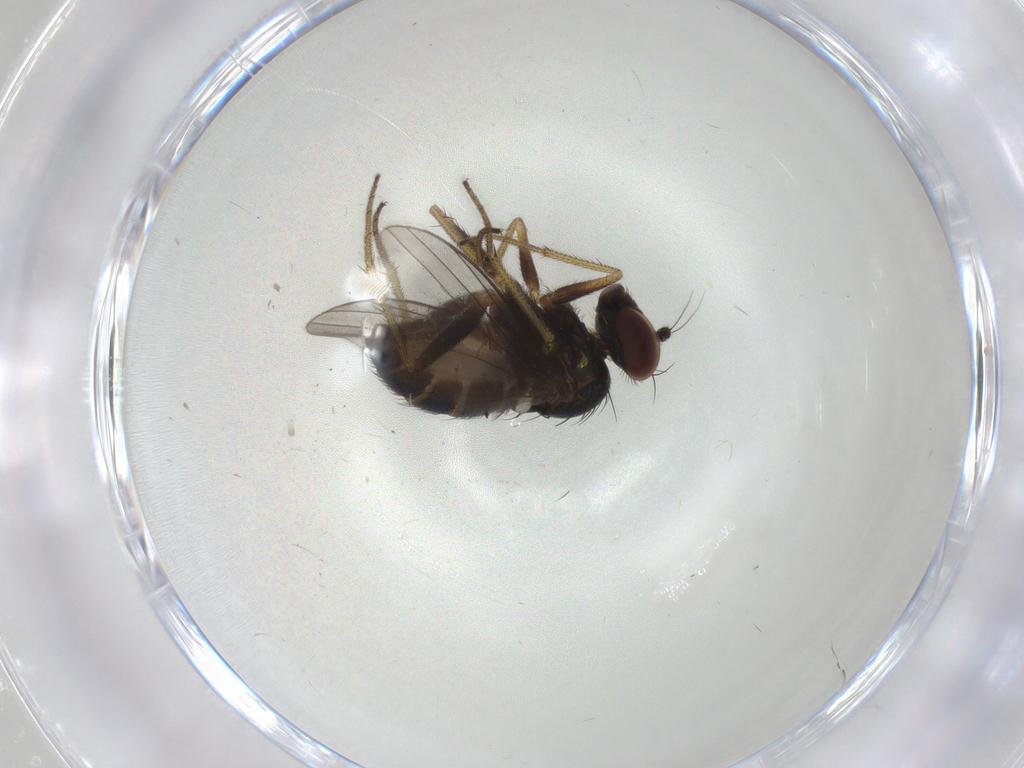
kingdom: Animalia
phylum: Arthropoda
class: Insecta
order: Diptera
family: Dolichopodidae
